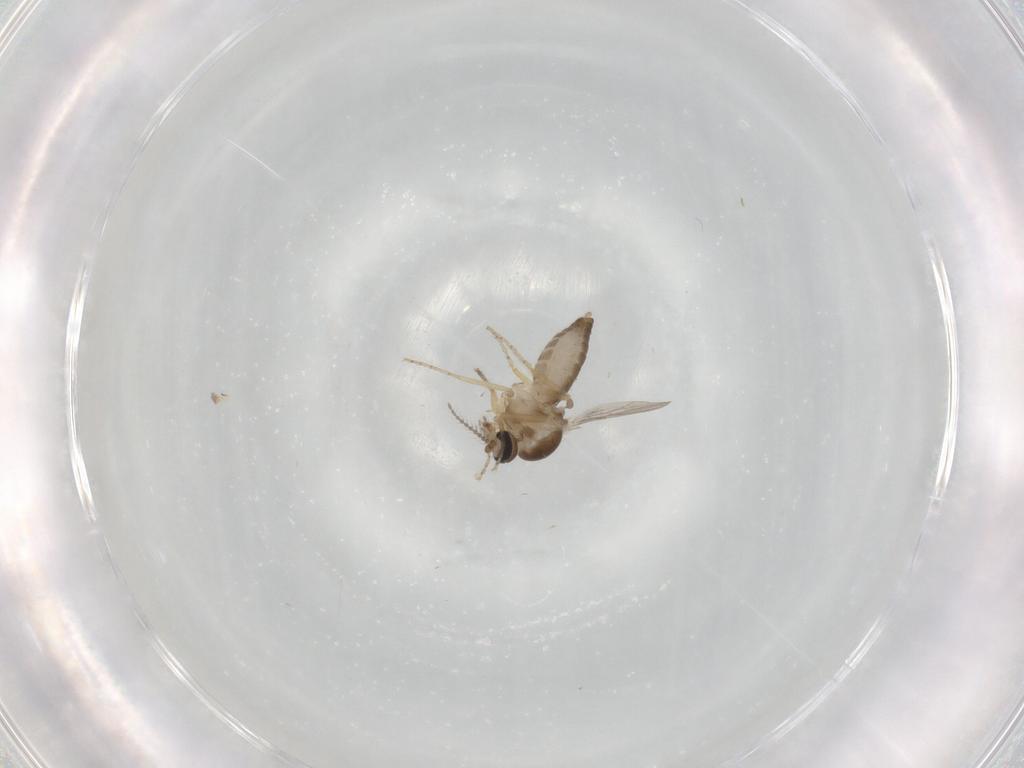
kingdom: Animalia
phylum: Arthropoda
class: Insecta
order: Diptera
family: Ceratopogonidae
